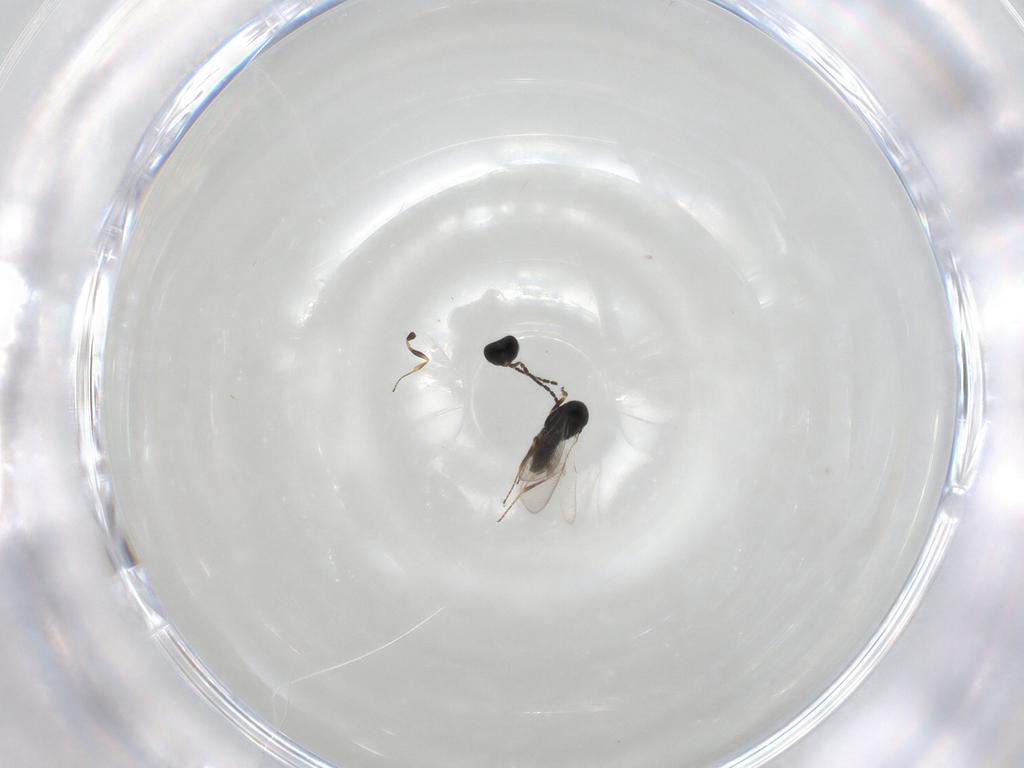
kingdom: Animalia
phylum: Arthropoda
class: Insecta
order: Hymenoptera
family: Scelionidae
